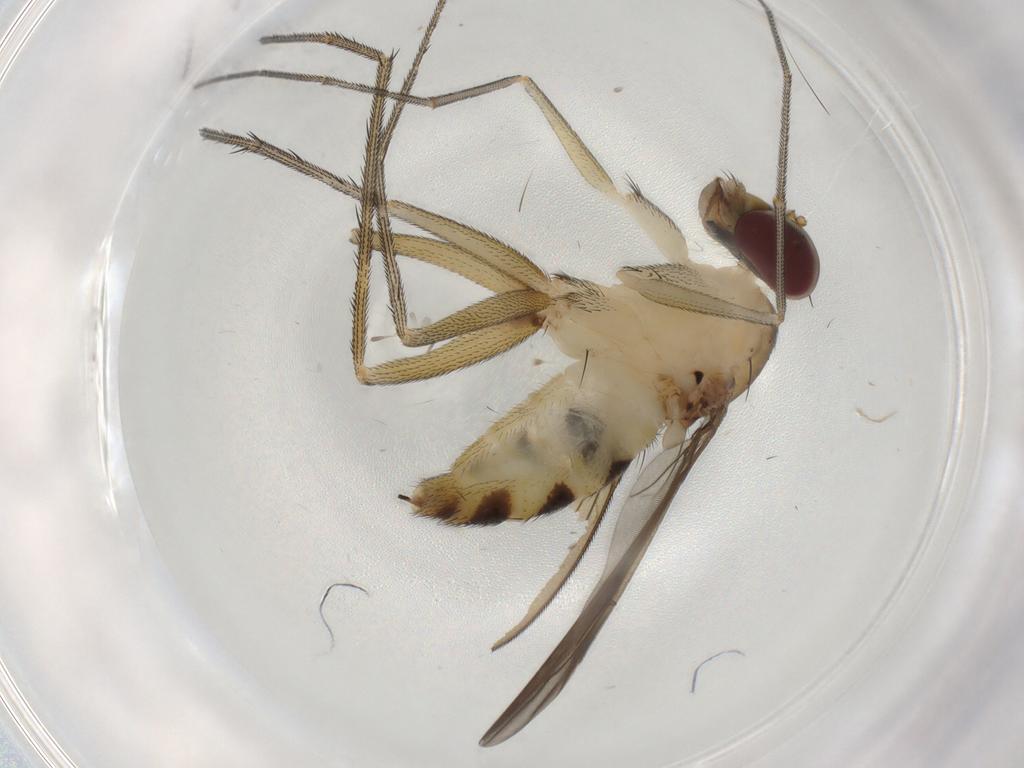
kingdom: Animalia
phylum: Arthropoda
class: Insecta
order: Diptera
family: Dolichopodidae
